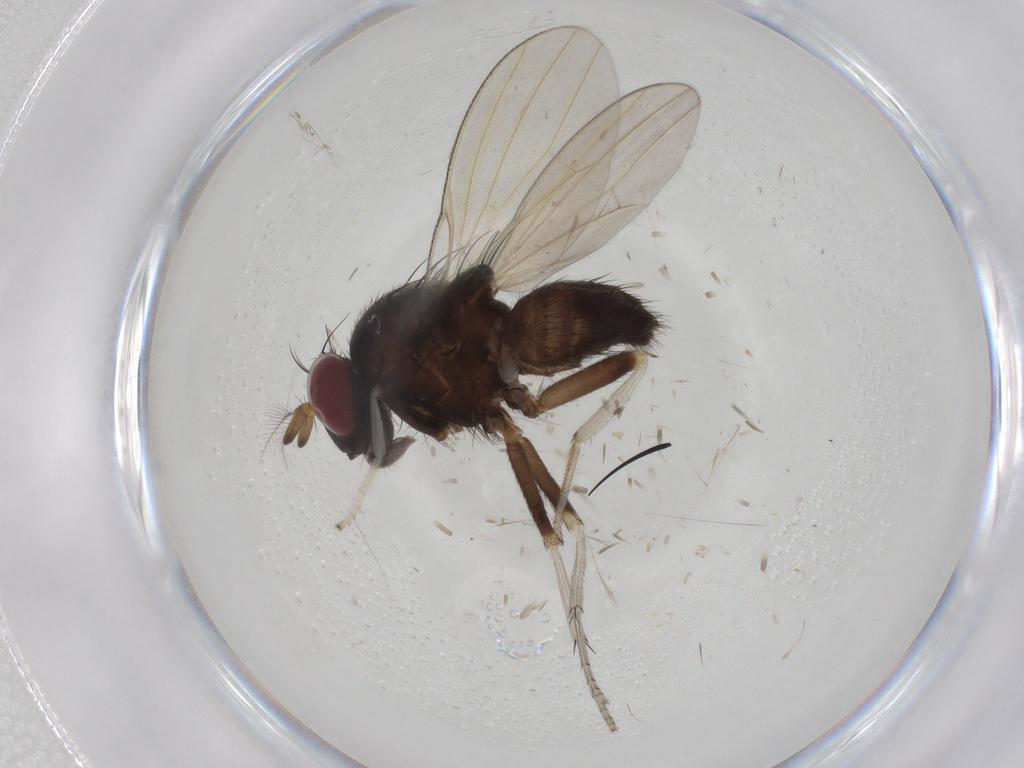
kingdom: Animalia
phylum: Arthropoda
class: Insecta
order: Diptera
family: Lauxaniidae
